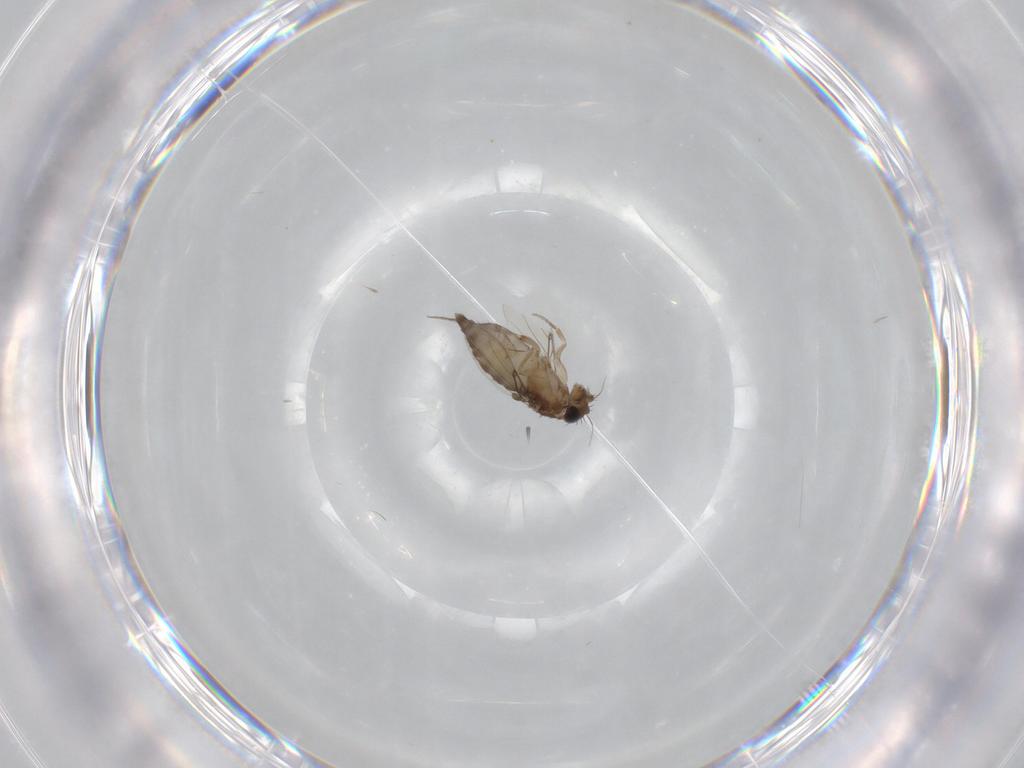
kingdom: Animalia
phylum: Arthropoda
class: Insecta
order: Diptera
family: Phoridae
